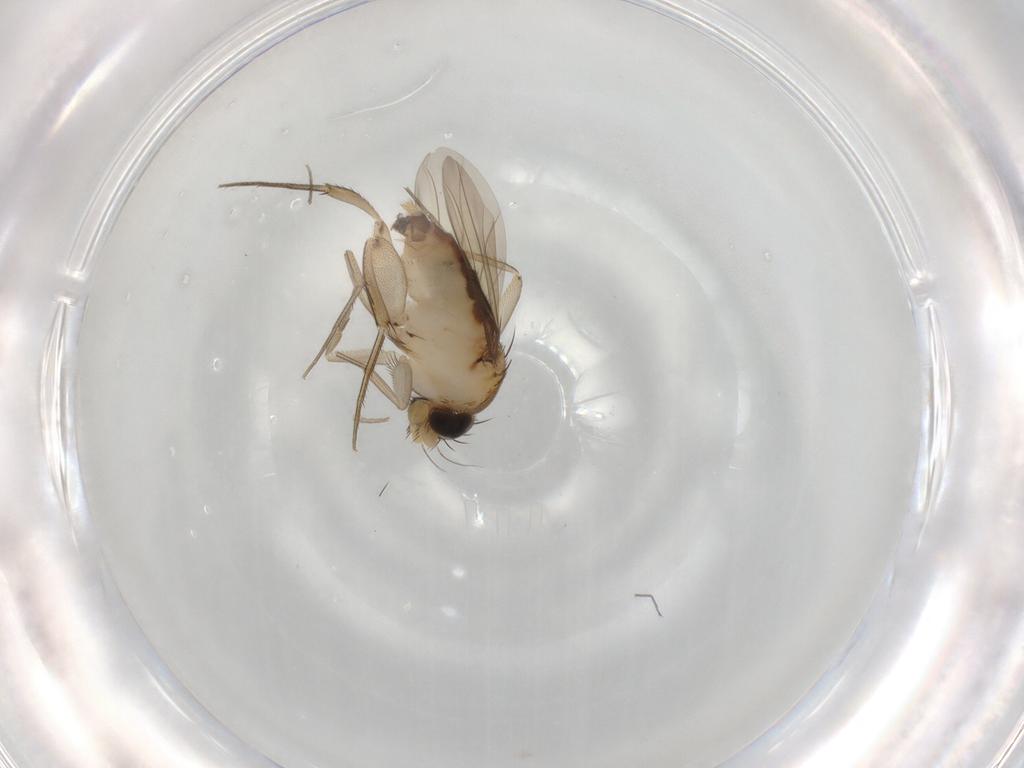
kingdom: Animalia
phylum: Arthropoda
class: Insecta
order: Diptera
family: Phoridae
